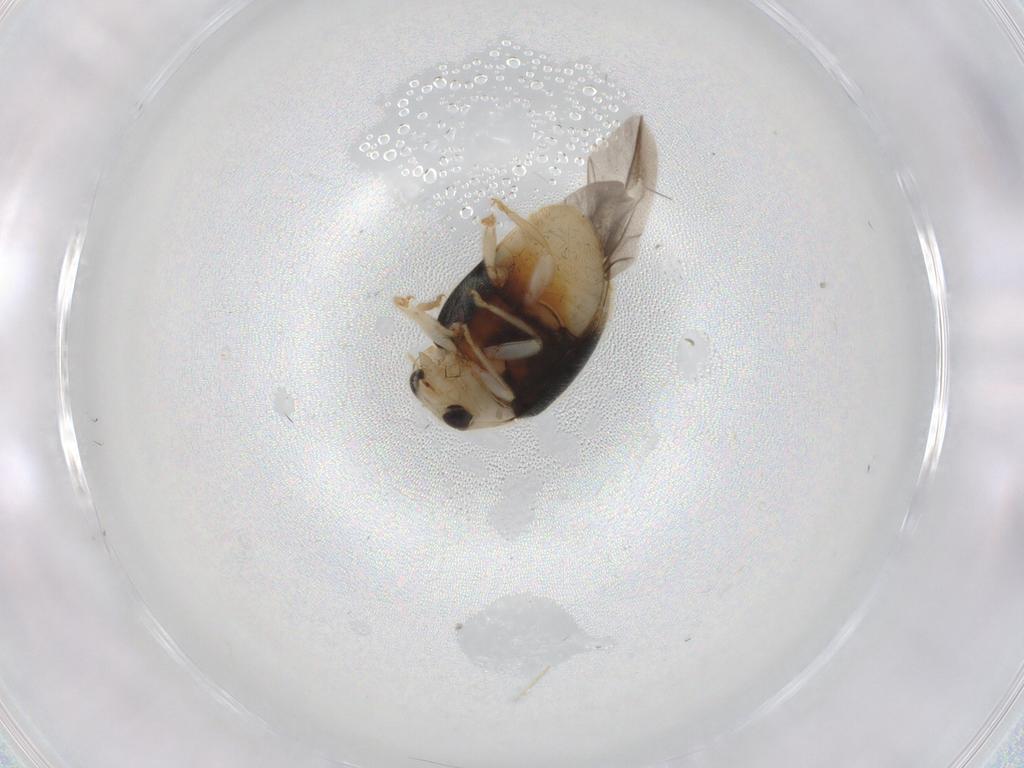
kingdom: Animalia
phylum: Arthropoda
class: Insecta
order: Coleoptera
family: Coccinellidae
